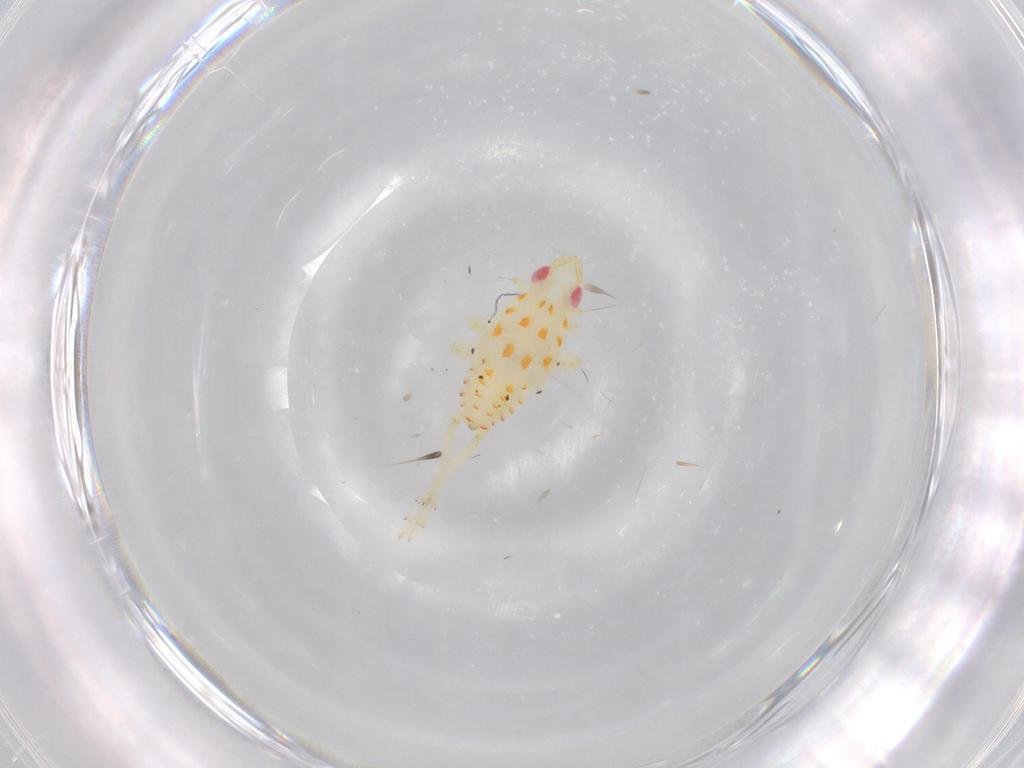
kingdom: Animalia
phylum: Arthropoda
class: Insecta
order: Hemiptera
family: Tropiduchidae
